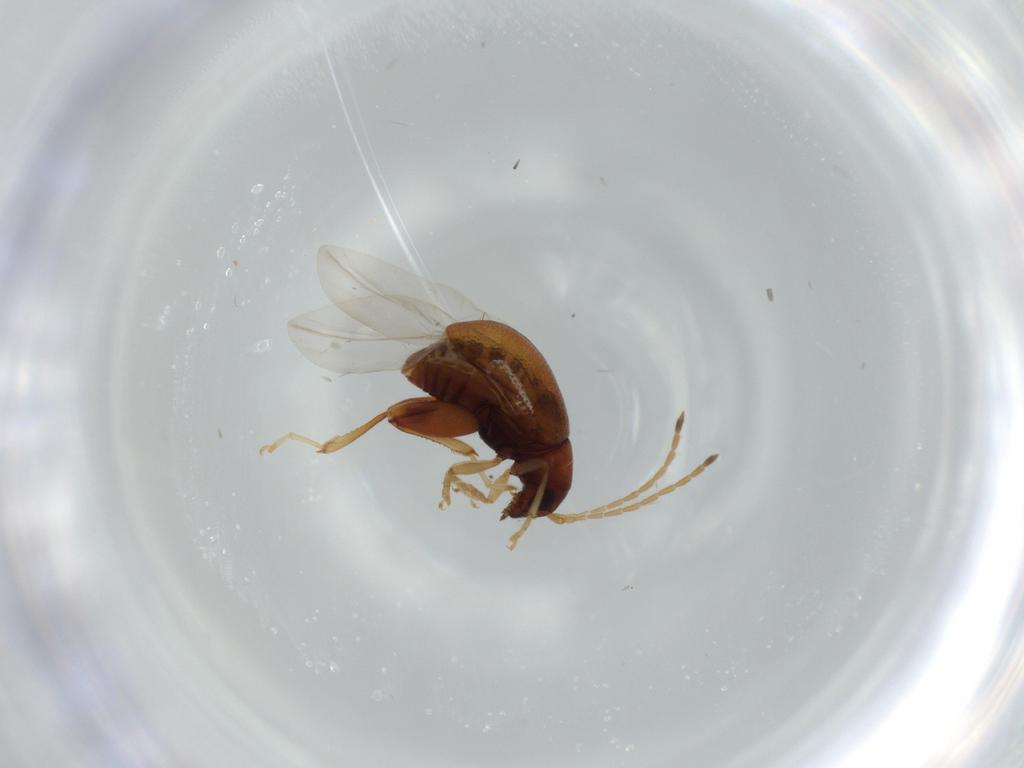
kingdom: Animalia
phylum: Arthropoda
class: Insecta
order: Coleoptera
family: Chrysomelidae
